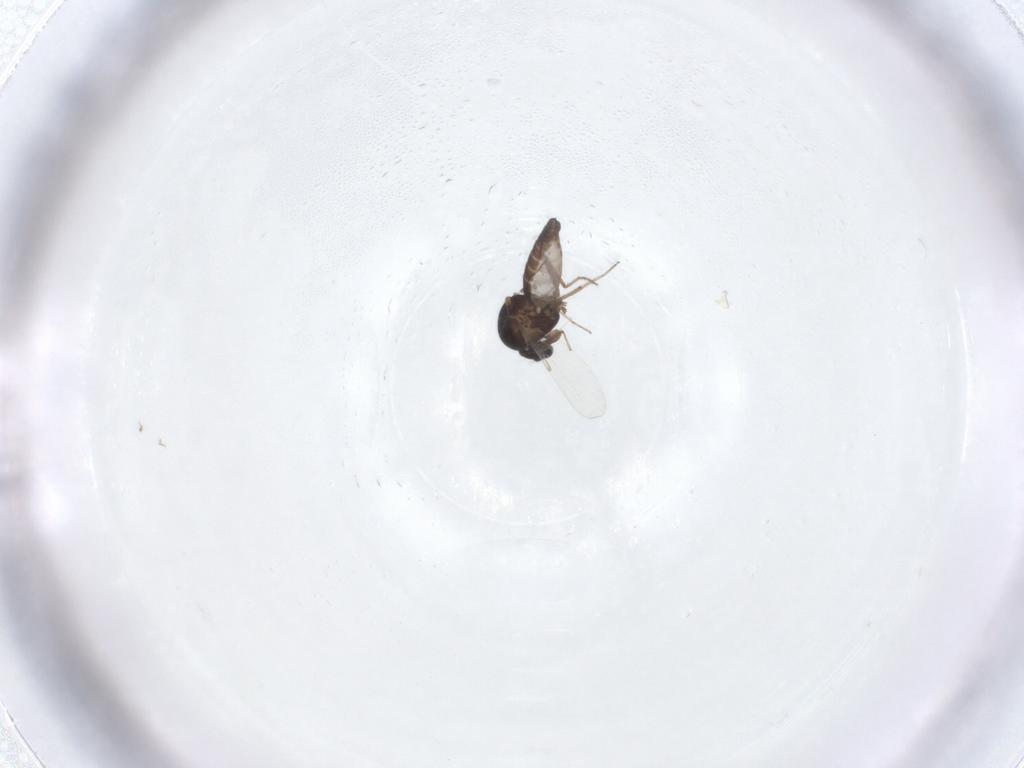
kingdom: Animalia
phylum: Arthropoda
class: Insecta
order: Diptera
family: Ceratopogonidae
